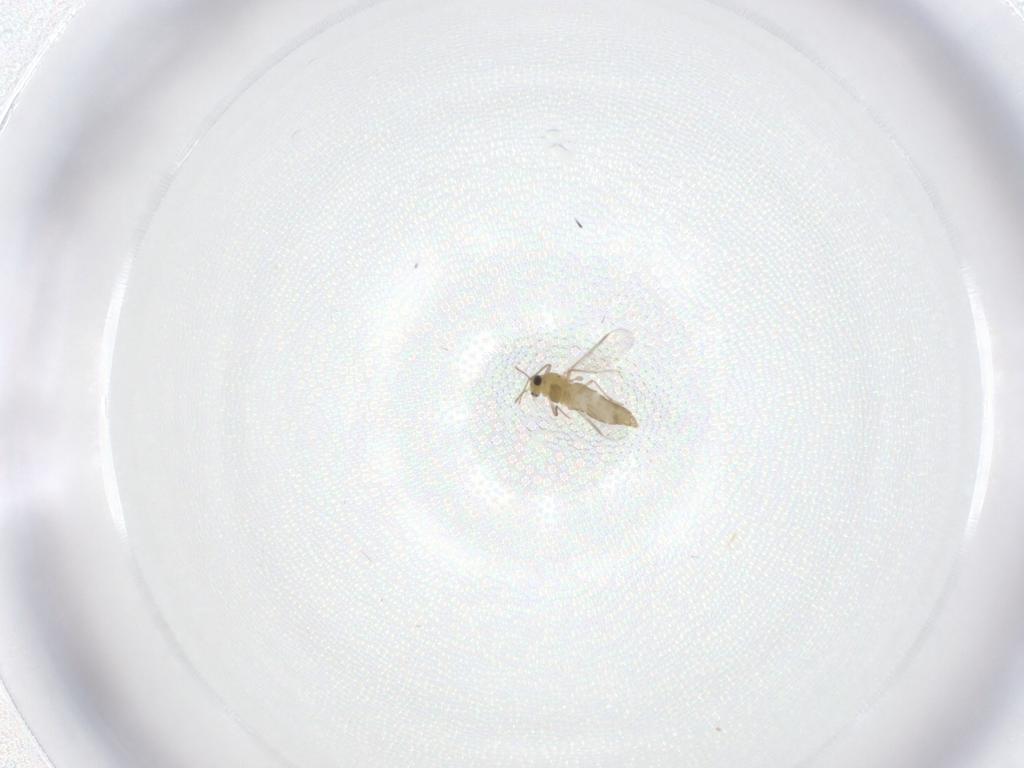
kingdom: Animalia
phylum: Arthropoda
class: Insecta
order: Diptera
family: Chironomidae
